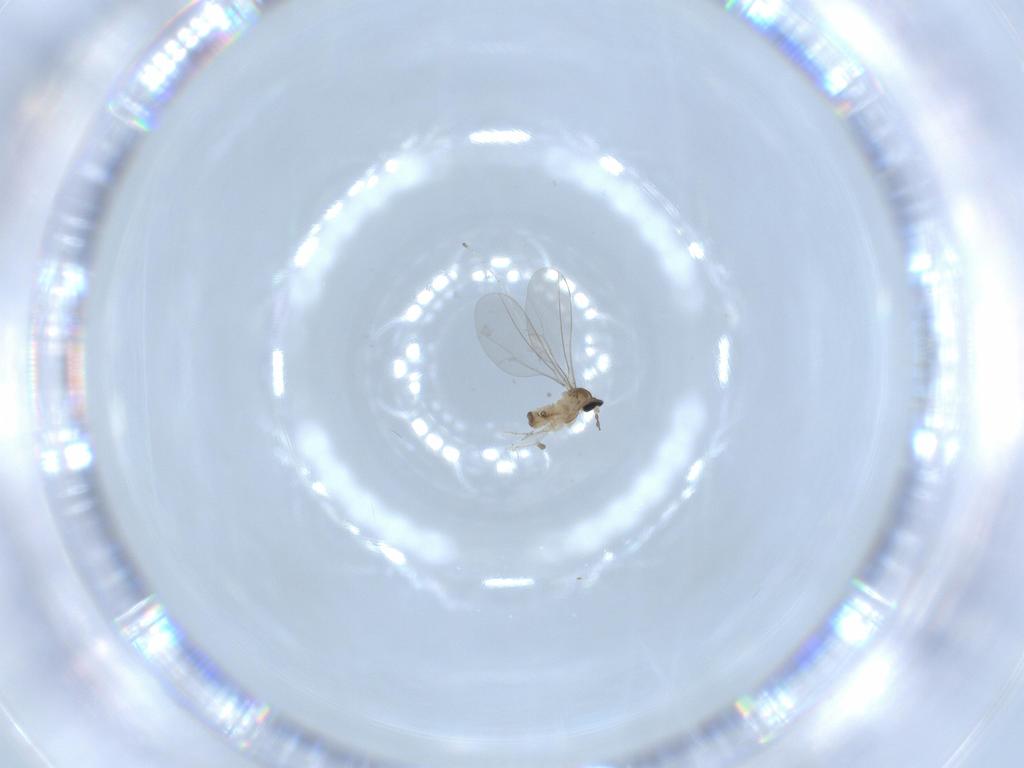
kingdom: Animalia
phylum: Arthropoda
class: Insecta
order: Diptera
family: Cecidomyiidae
